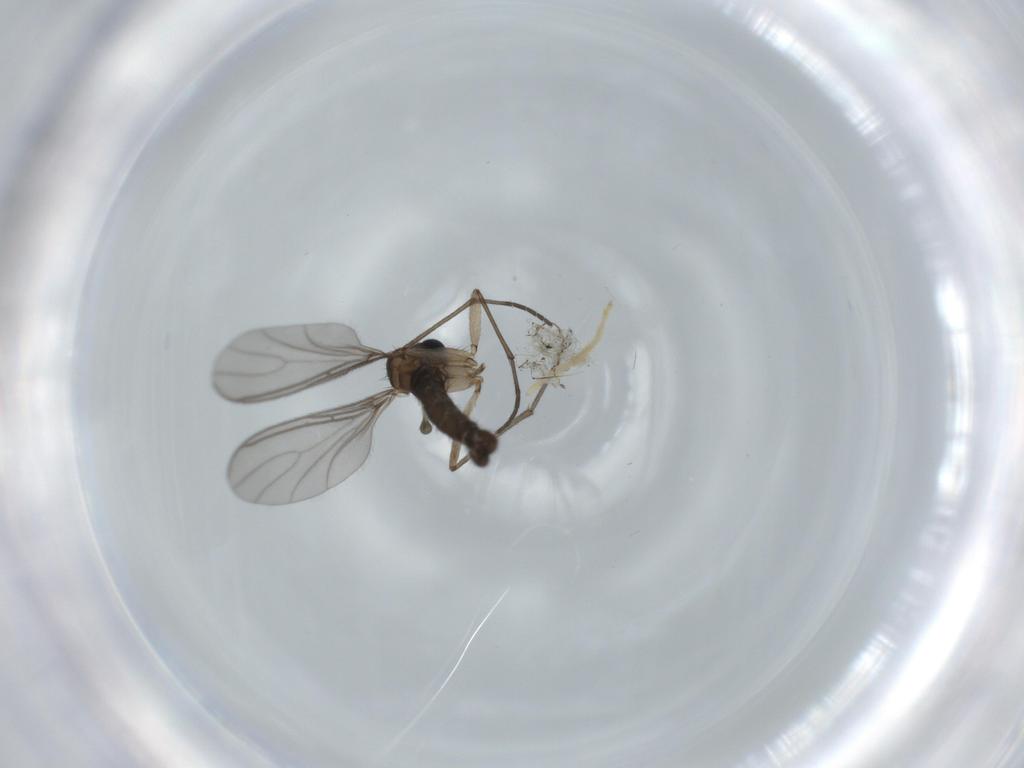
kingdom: Animalia
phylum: Arthropoda
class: Insecta
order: Diptera
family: Sciaridae
